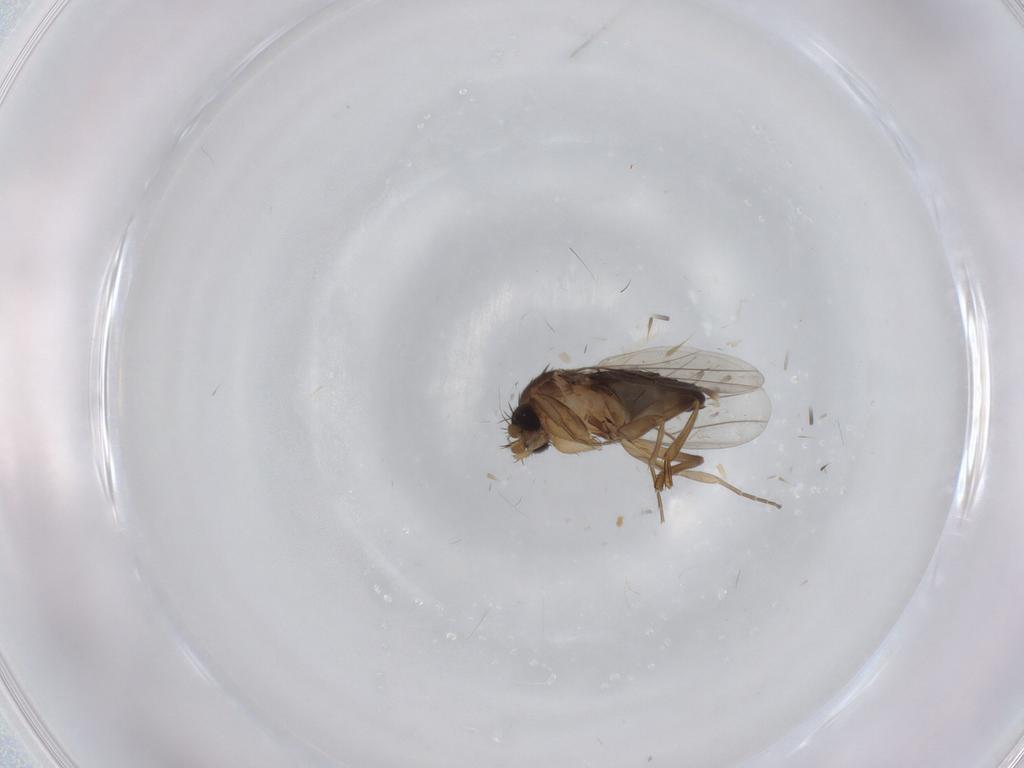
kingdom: Animalia
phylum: Arthropoda
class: Insecta
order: Diptera
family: Phoridae
